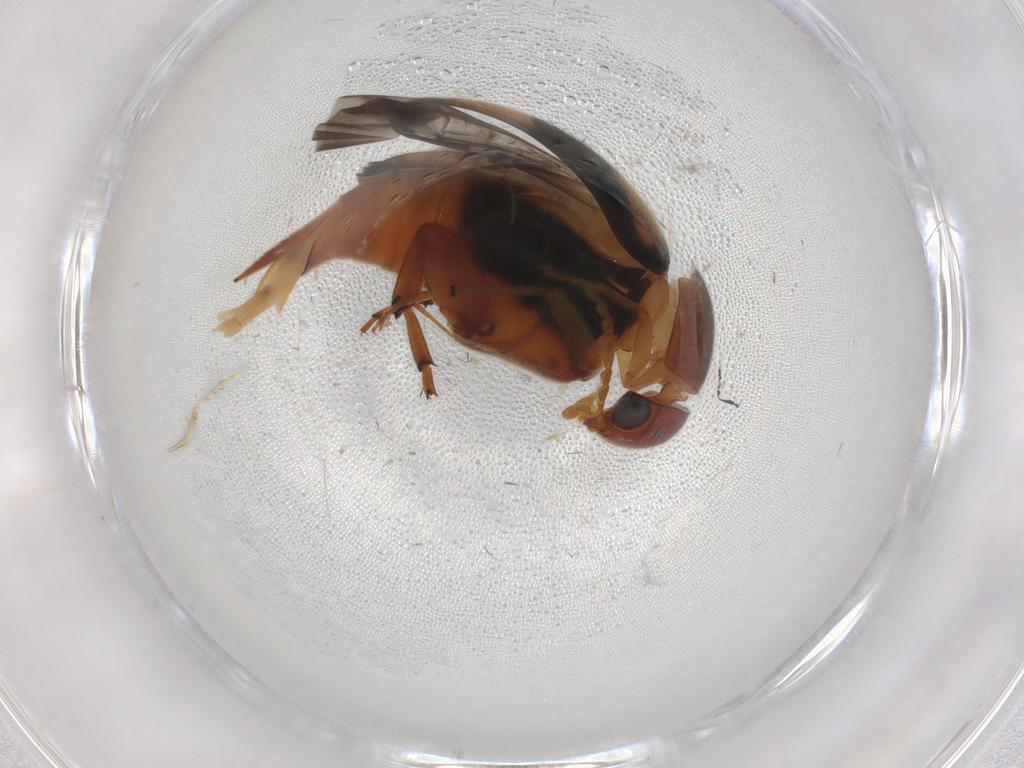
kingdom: Animalia
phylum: Arthropoda
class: Insecta
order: Coleoptera
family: Mordellidae
